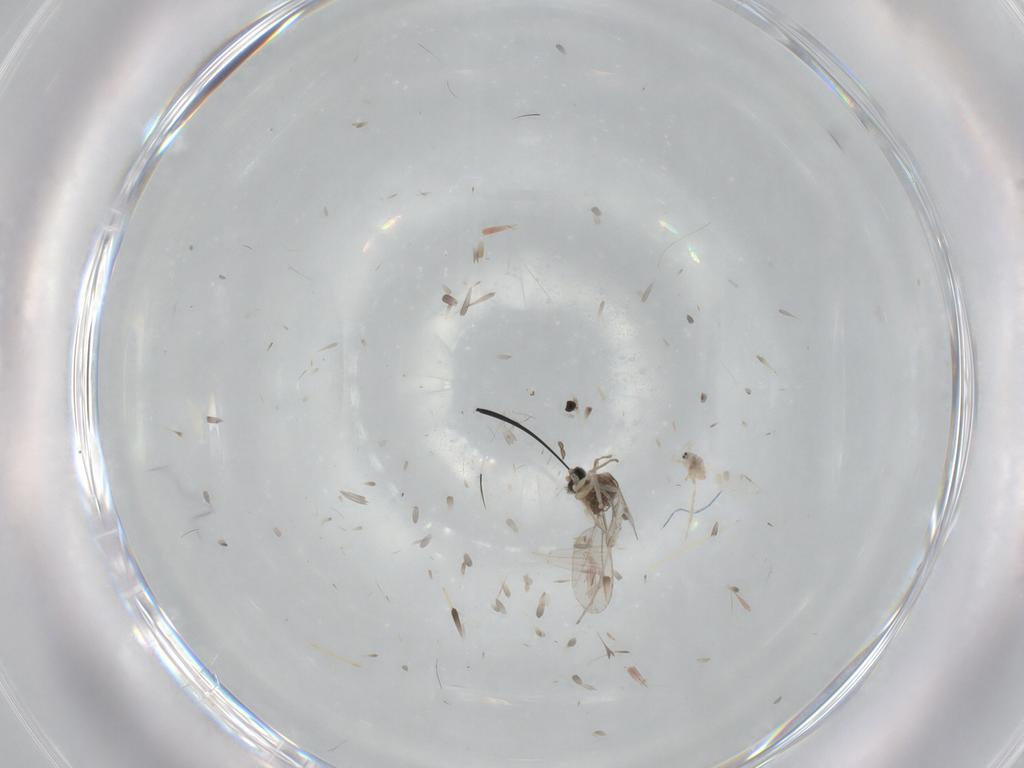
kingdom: Animalia
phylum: Arthropoda
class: Insecta
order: Diptera
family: Cecidomyiidae
